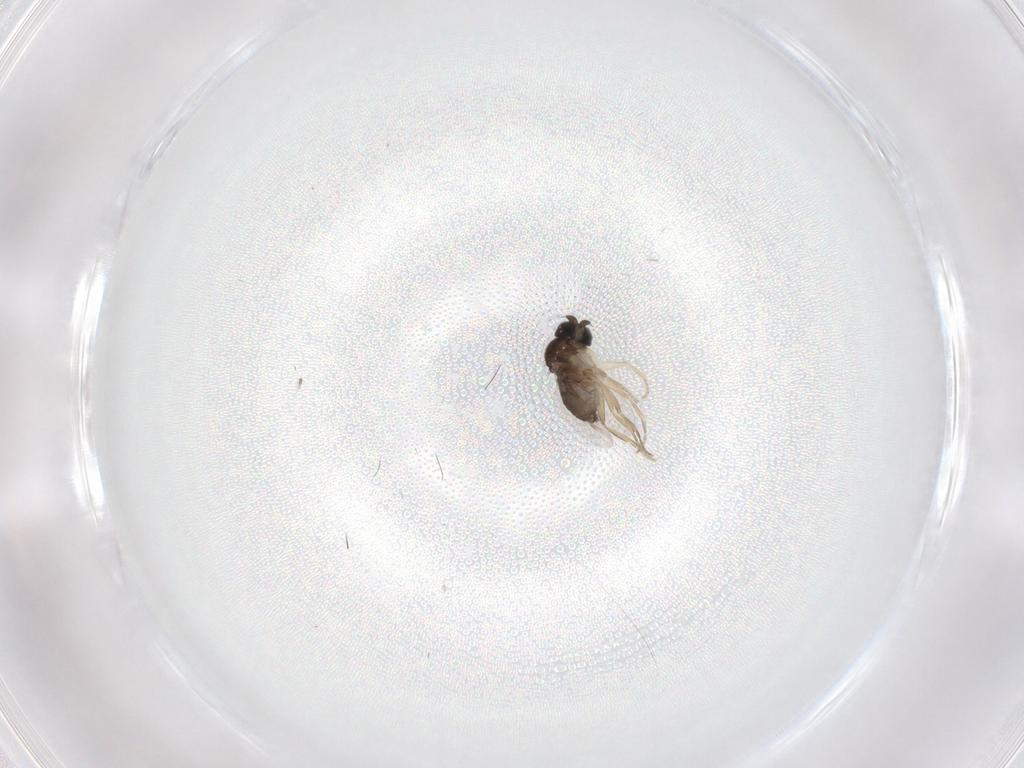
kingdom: Animalia
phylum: Arthropoda
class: Insecta
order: Diptera
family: Phoridae
